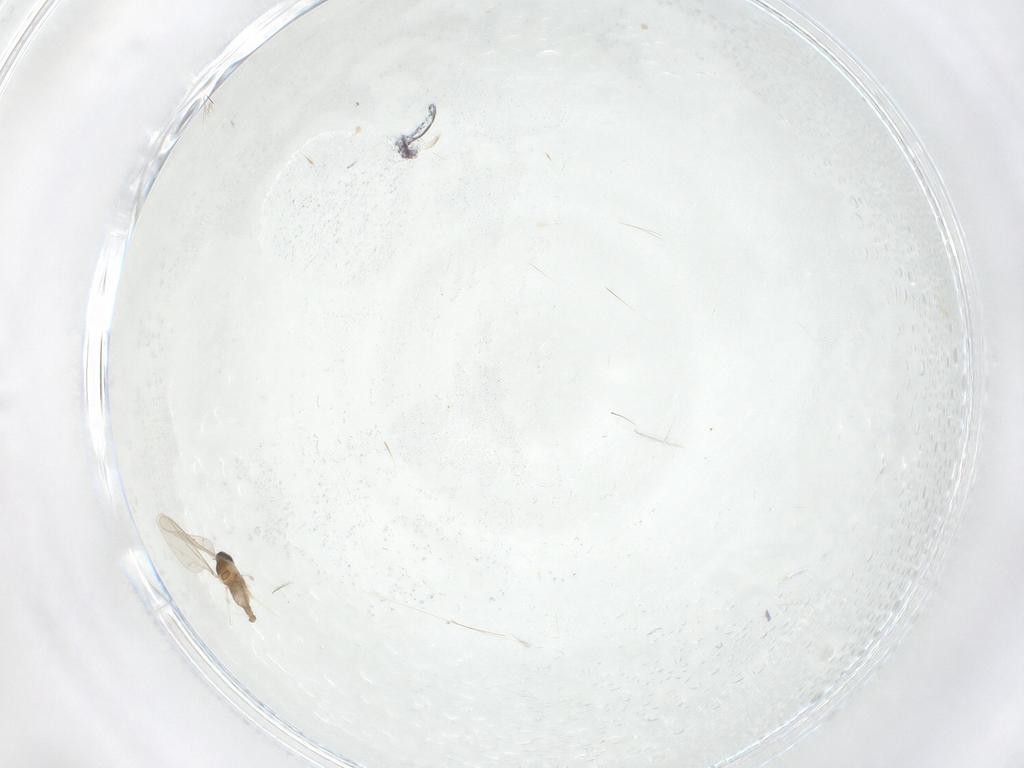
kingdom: Animalia
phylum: Arthropoda
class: Insecta
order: Diptera
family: Cecidomyiidae
